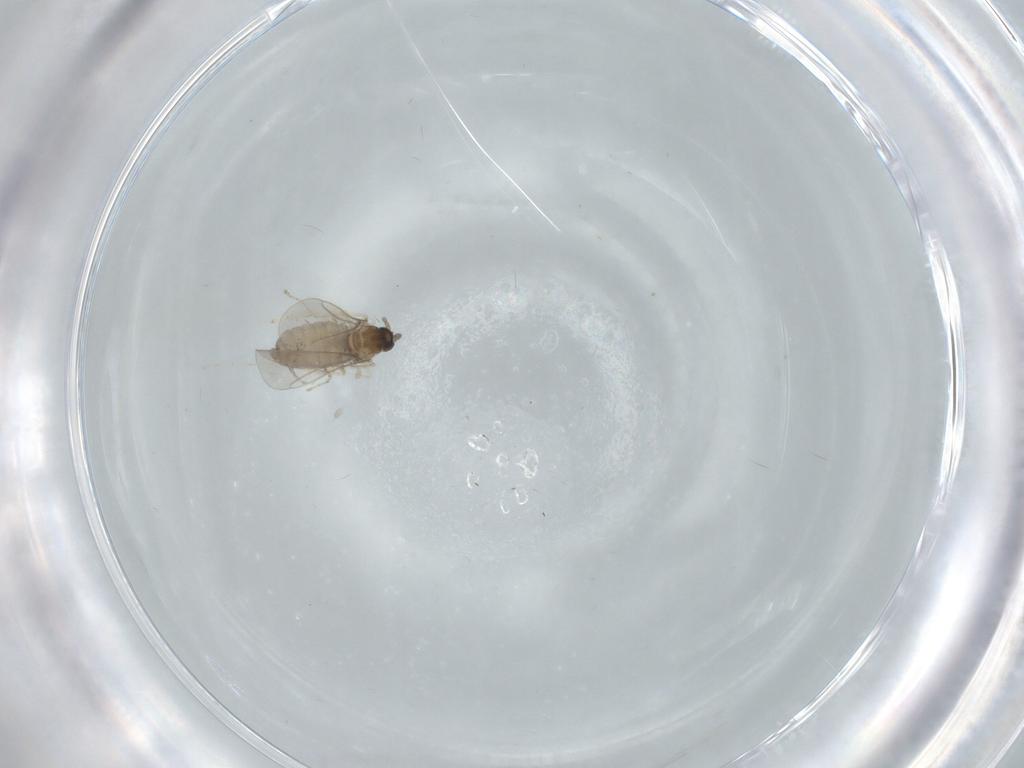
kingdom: Animalia
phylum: Arthropoda
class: Insecta
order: Diptera
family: Cecidomyiidae
